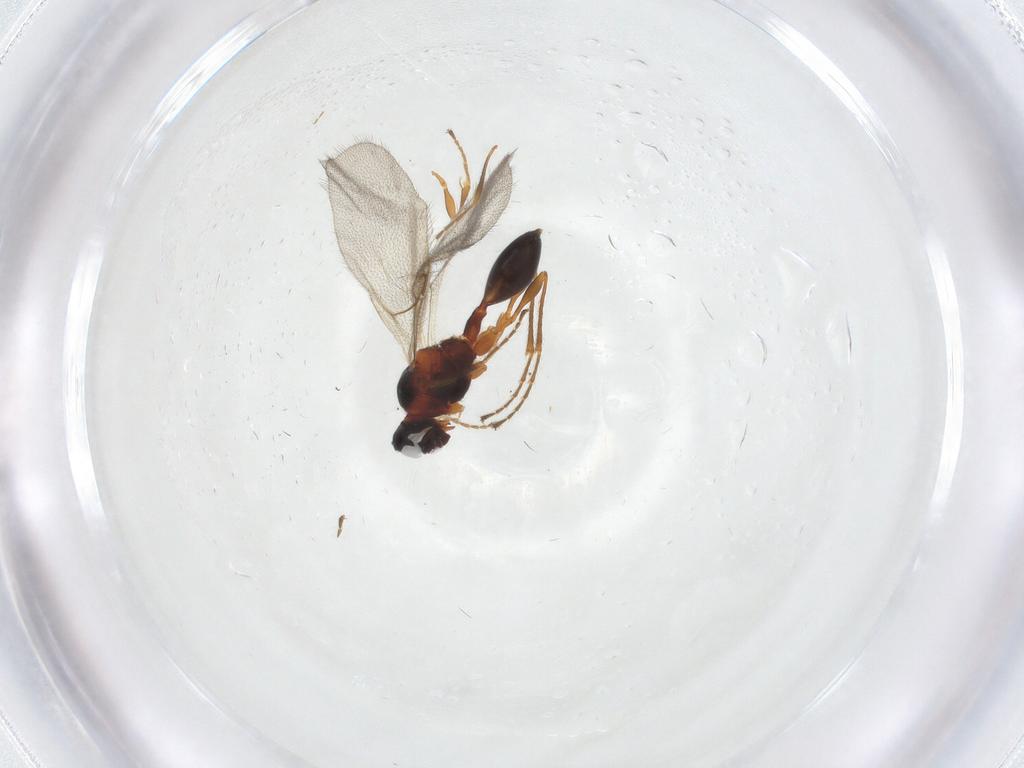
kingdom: Animalia
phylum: Arthropoda
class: Insecta
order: Hymenoptera
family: Diapriidae
